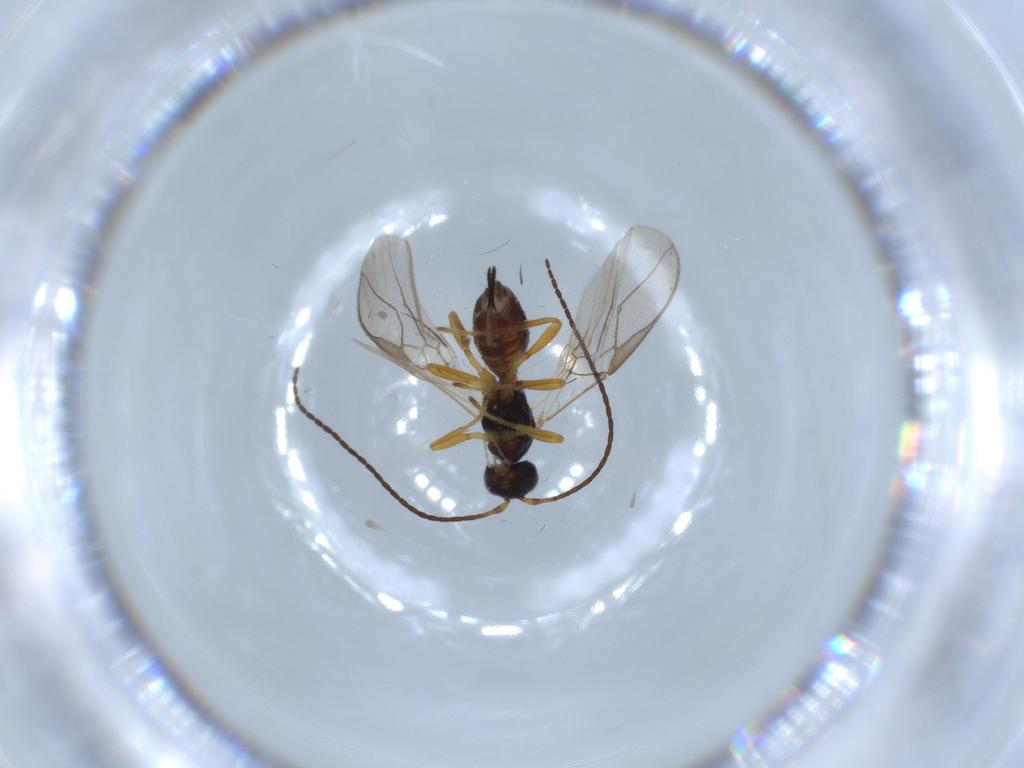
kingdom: Animalia
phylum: Arthropoda
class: Insecta
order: Hymenoptera
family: Braconidae
